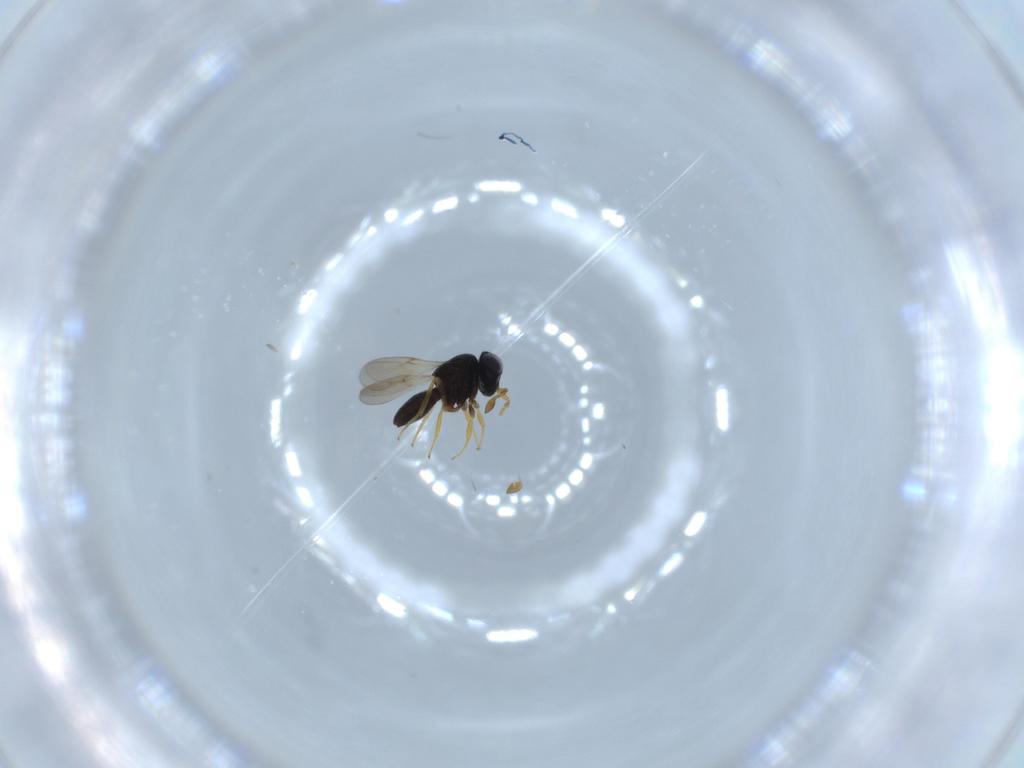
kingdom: Animalia
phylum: Arthropoda
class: Insecta
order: Hymenoptera
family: Scelionidae
